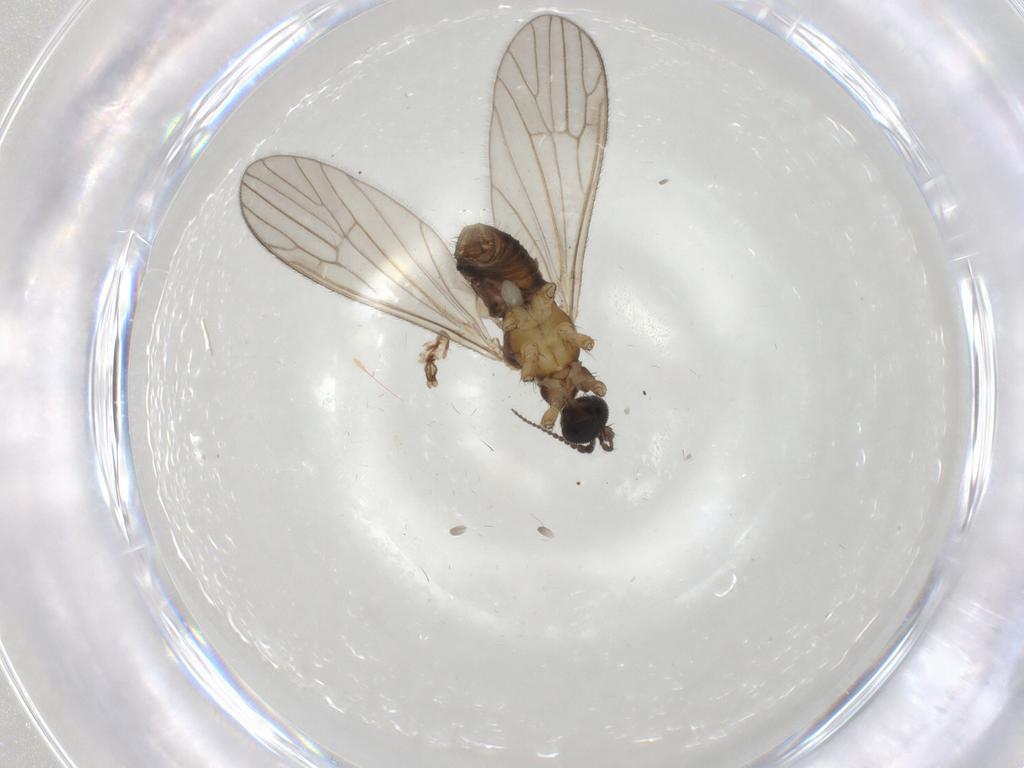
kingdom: Animalia
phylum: Arthropoda
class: Insecta
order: Diptera
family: Agromyzidae
